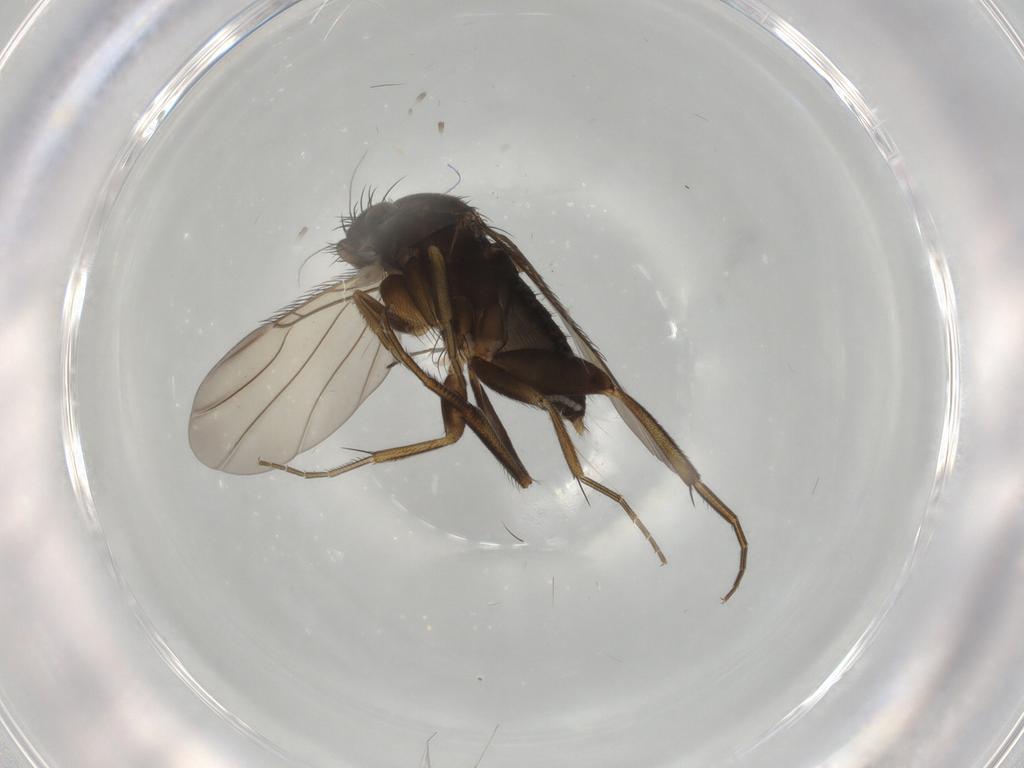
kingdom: Animalia
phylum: Arthropoda
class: Insecta
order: Diptera
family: Phoridae
